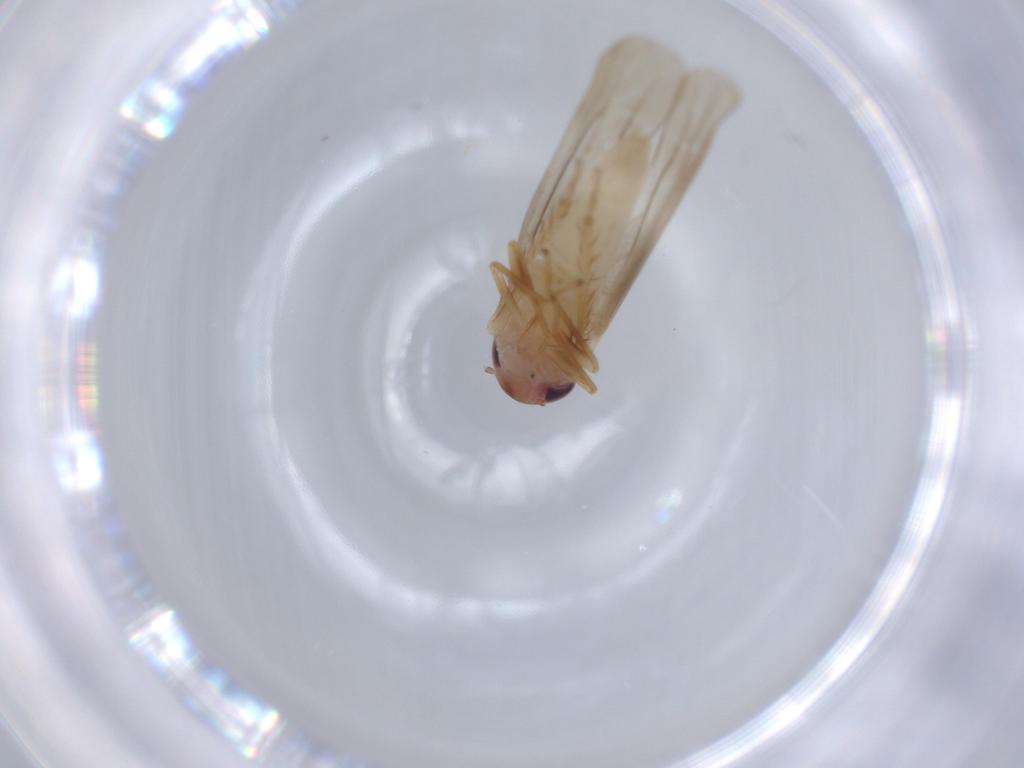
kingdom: Animalia
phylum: Arthropoda
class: Insecta
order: Hemiptera
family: Cicadellidae
